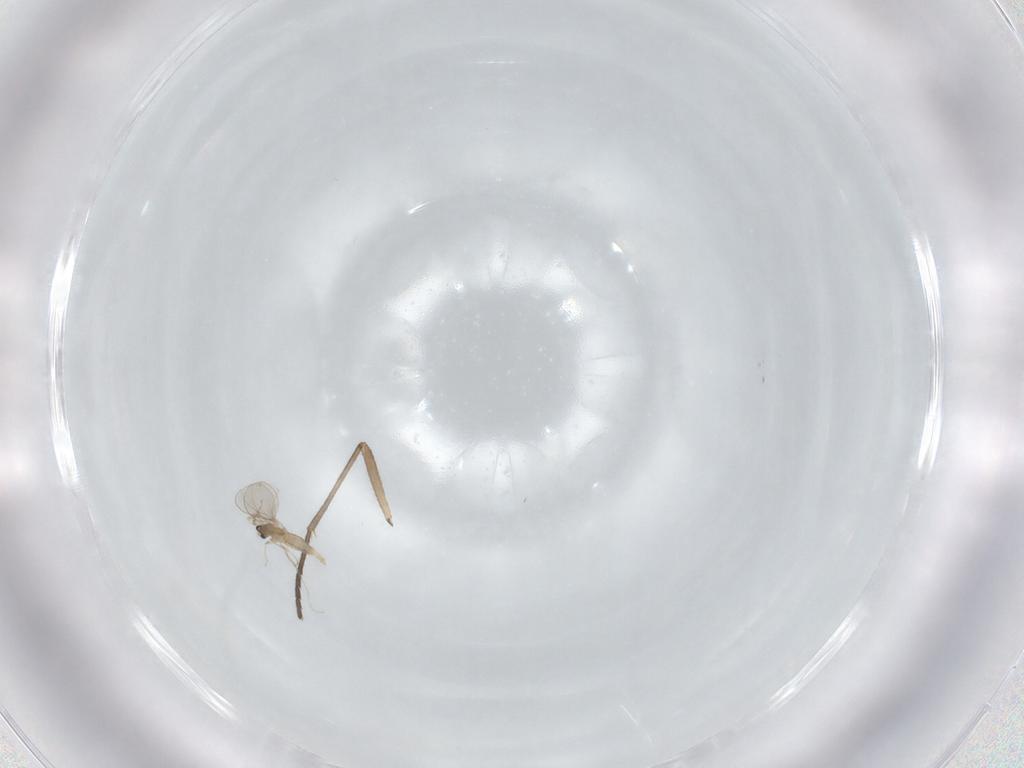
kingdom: Animalia
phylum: Arthropoda
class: Insecta
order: Diptera
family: Cecidomyiidae
